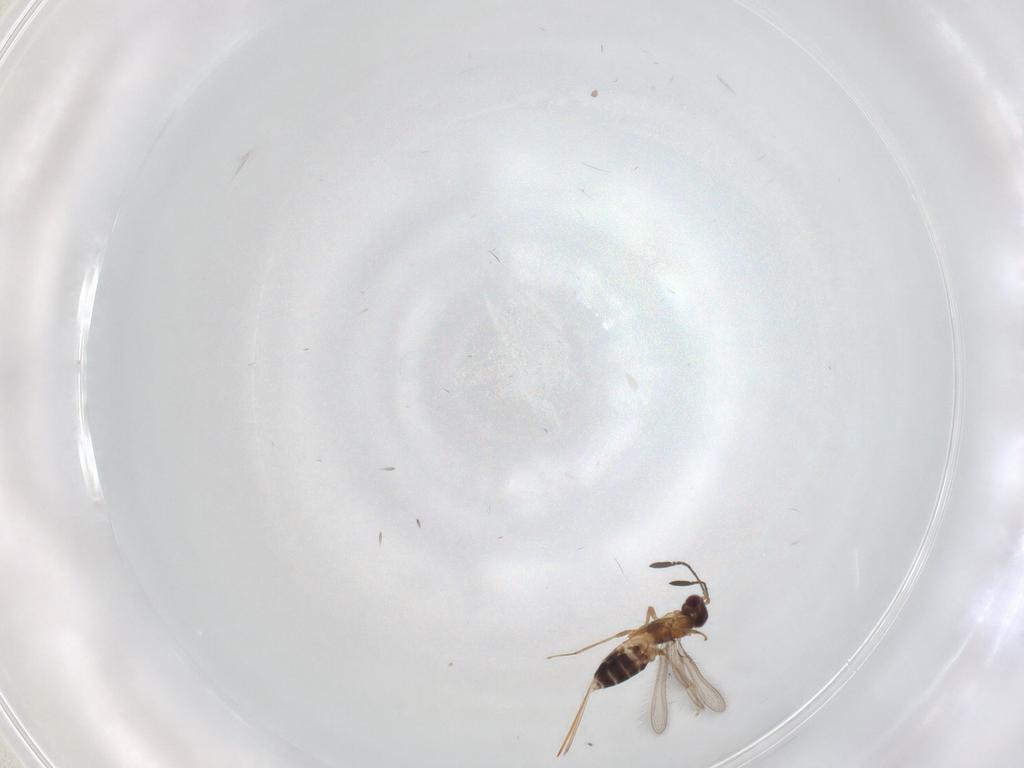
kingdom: Animalia
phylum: Arthropoda
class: Insecta
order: Hymenoptera
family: Mymaridae
